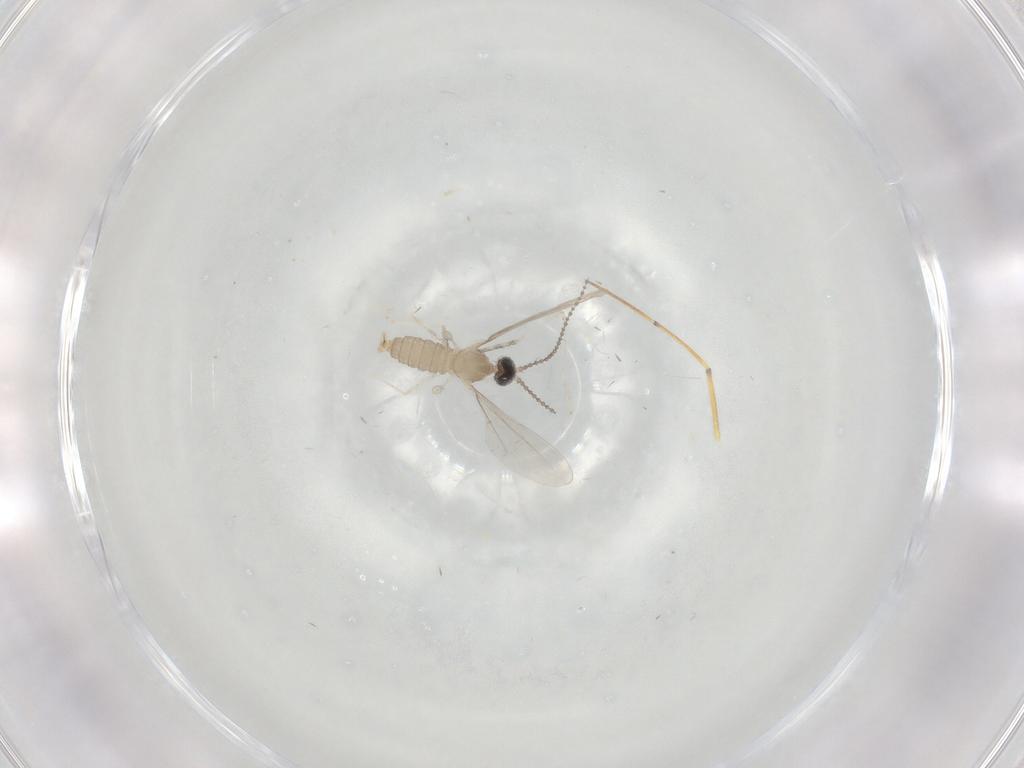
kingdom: Animalia
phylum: Arthropoda
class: Insecta
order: Diptera
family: Cecidomyiidae
